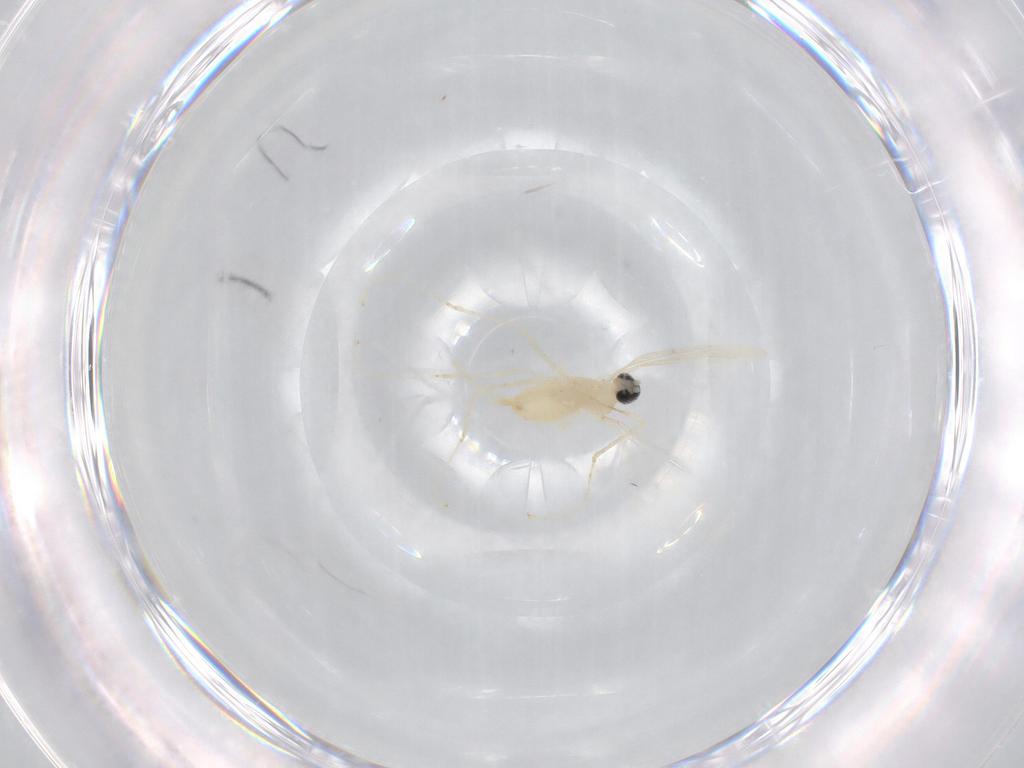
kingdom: Animalia
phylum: Arthropoda
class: Insecta
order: Diptera
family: Cecidomyiidae
